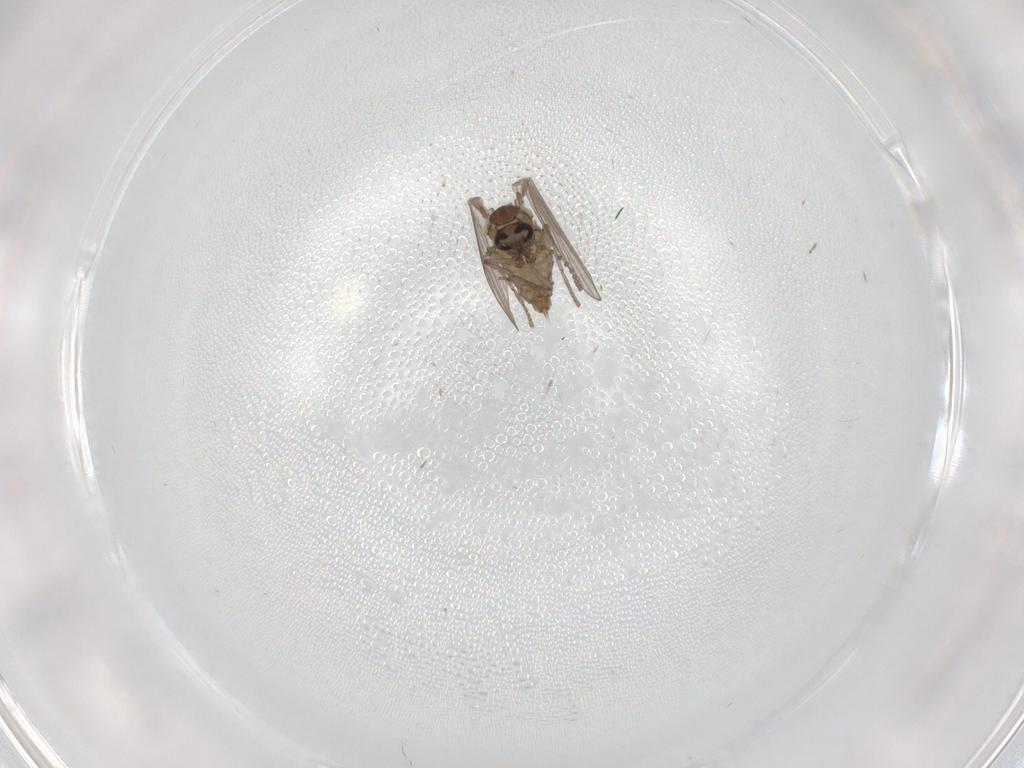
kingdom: Animalia
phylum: Arthropoda
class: Insecta
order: Diptera
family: Psychodidae
